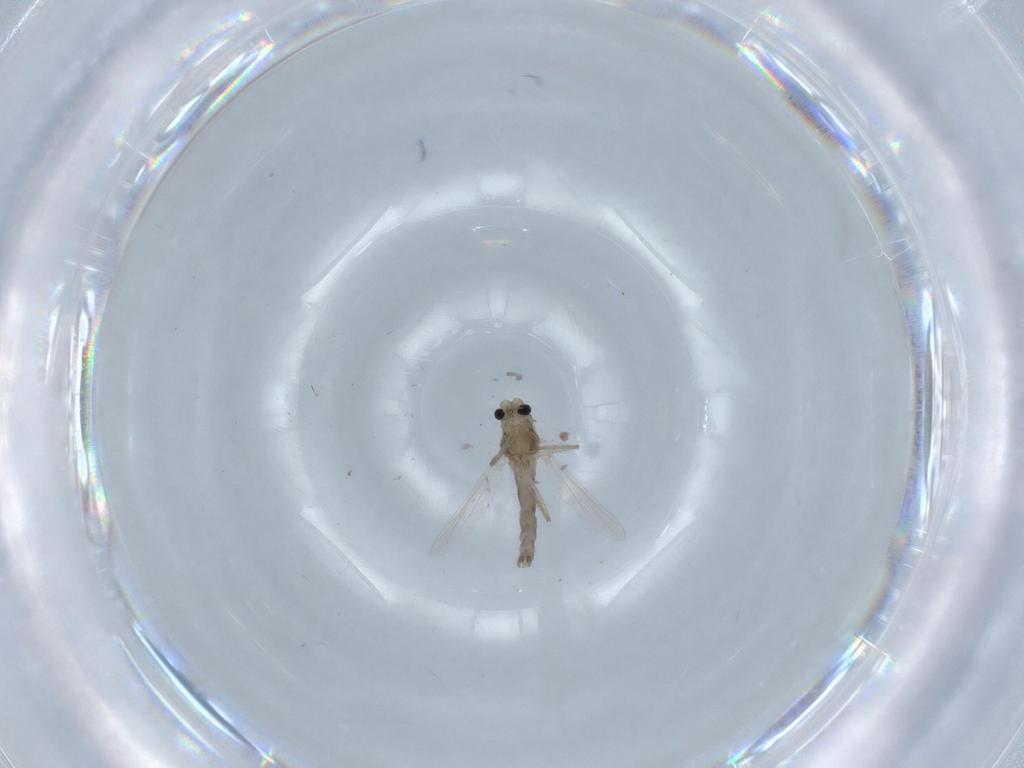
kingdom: Animalia
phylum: Arthropoda
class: Insecta
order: Diptera
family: Chironomidae
